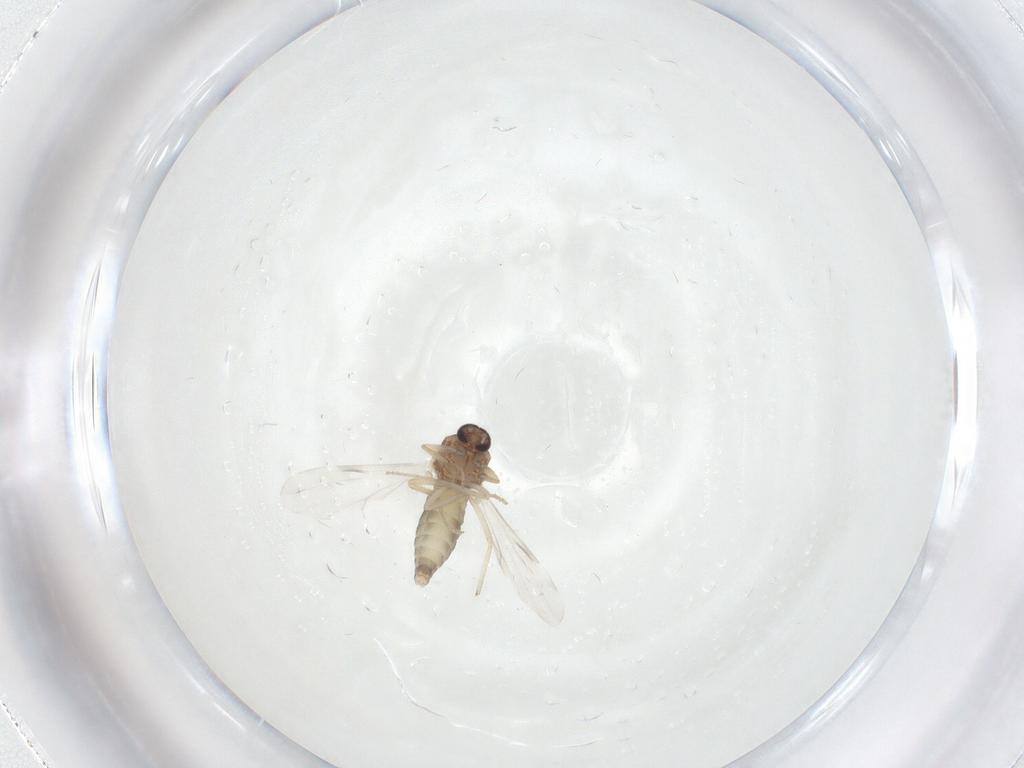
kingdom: Animalia
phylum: Arthropoda
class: Insecta
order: Diptera
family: Ceratopogonidae
